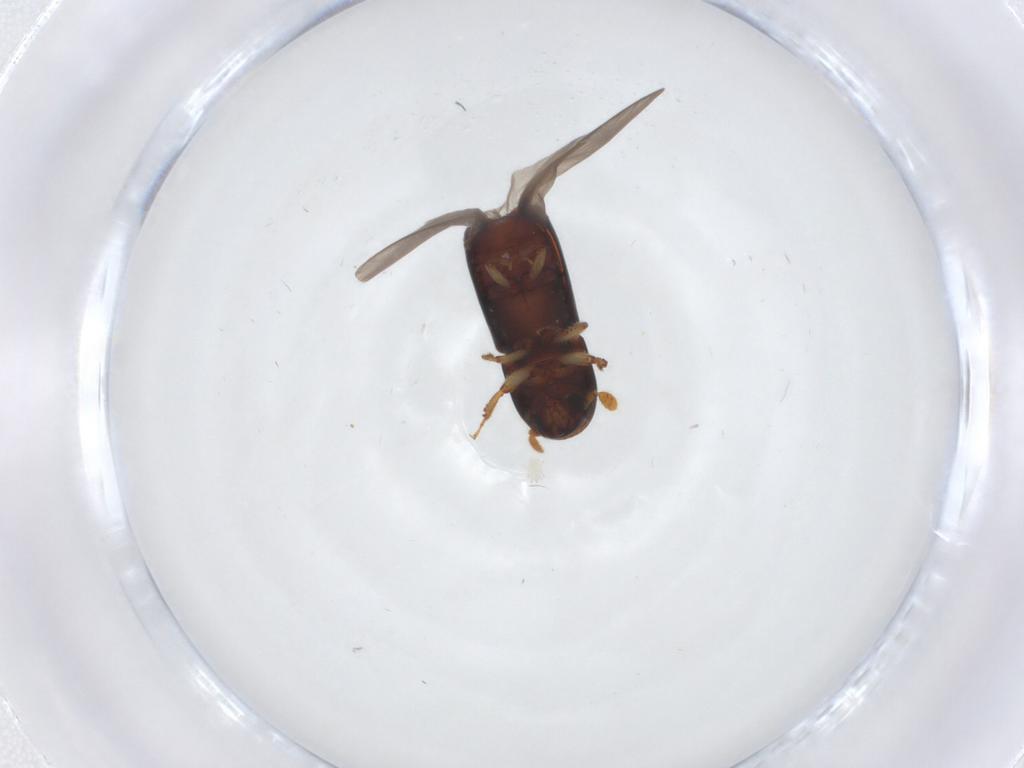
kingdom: Animalia
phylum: Arthropoda
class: Insecta
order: Coleoptera
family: Curculionidae
